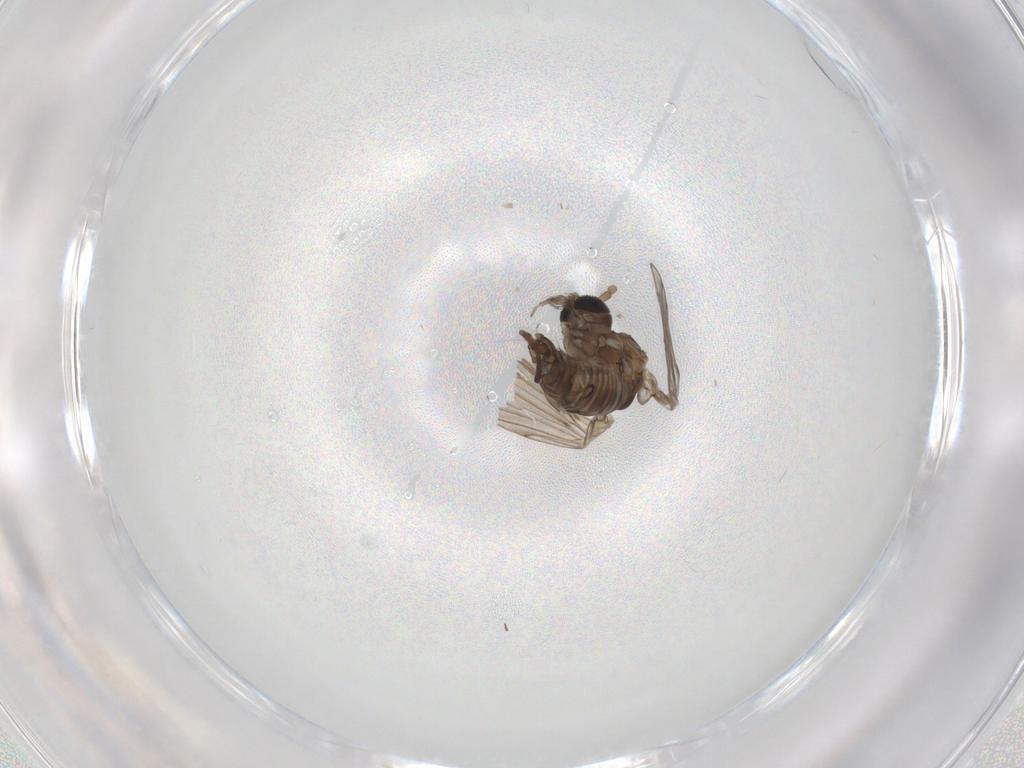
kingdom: Animalia
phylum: Arthropoda
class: Insecta
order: Diptera
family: Psychodidae
